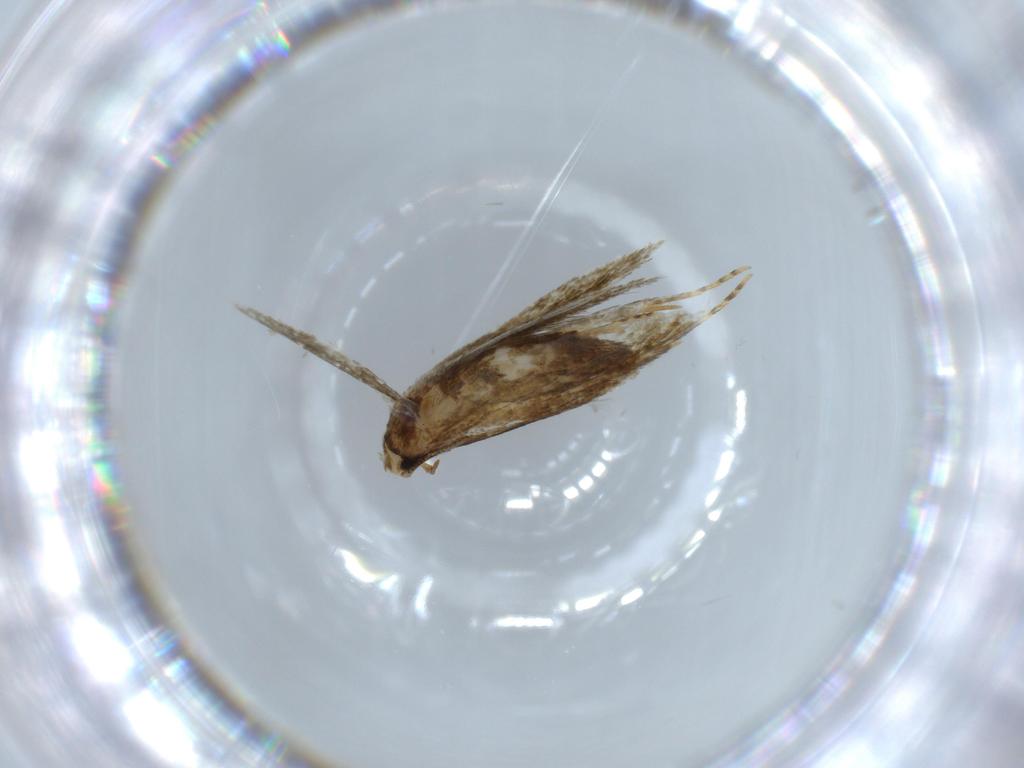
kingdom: Animalia
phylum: Arthropoda
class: Insecta
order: Lepidoptera
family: Tineidae
